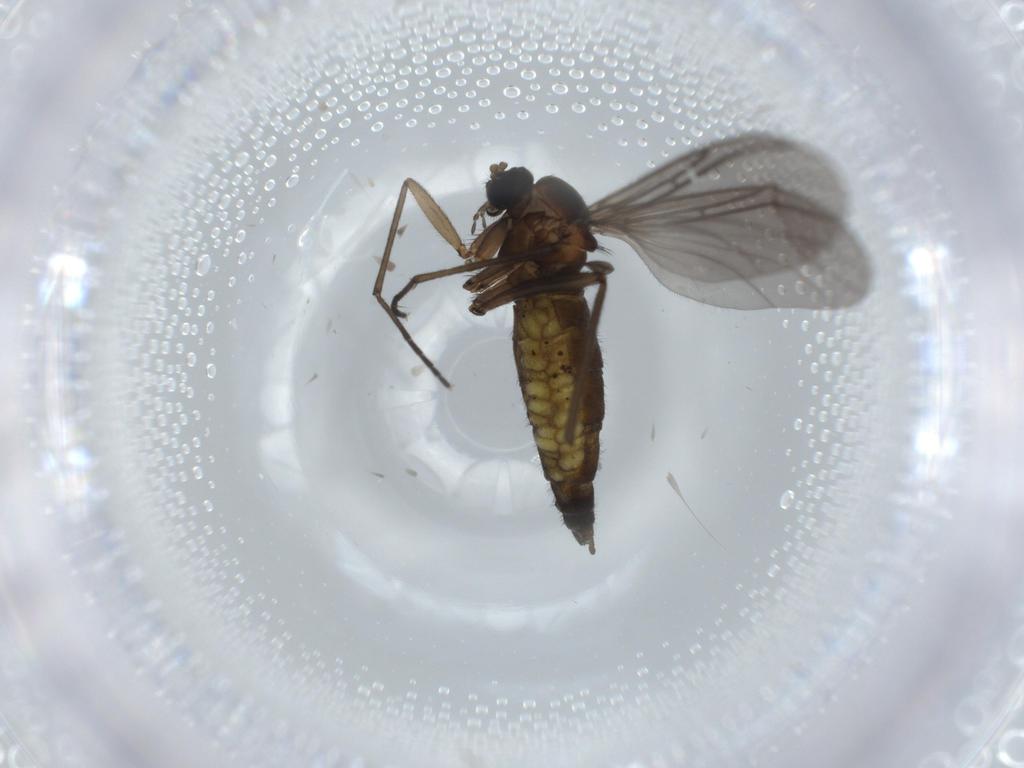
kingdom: Animalia
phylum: Arthropoda
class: Insecta
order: Diptera
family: Sciaridae
